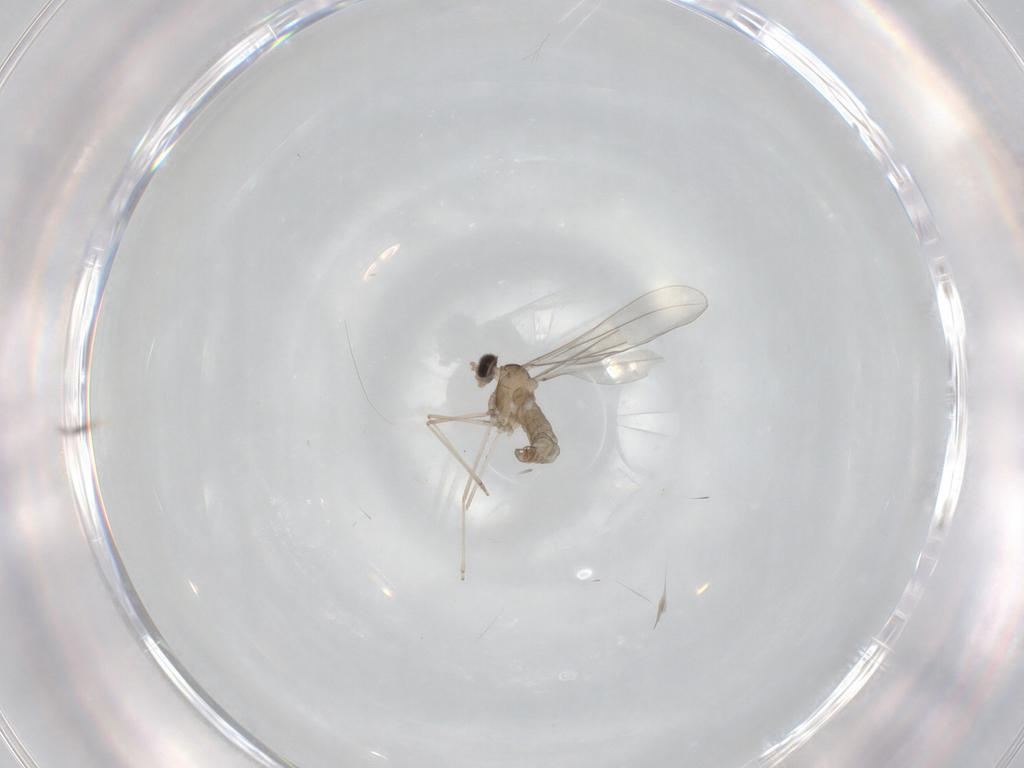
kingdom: Animalia
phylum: Arthropoda
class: Insecta
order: Diptera
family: Cecidomyiidae
